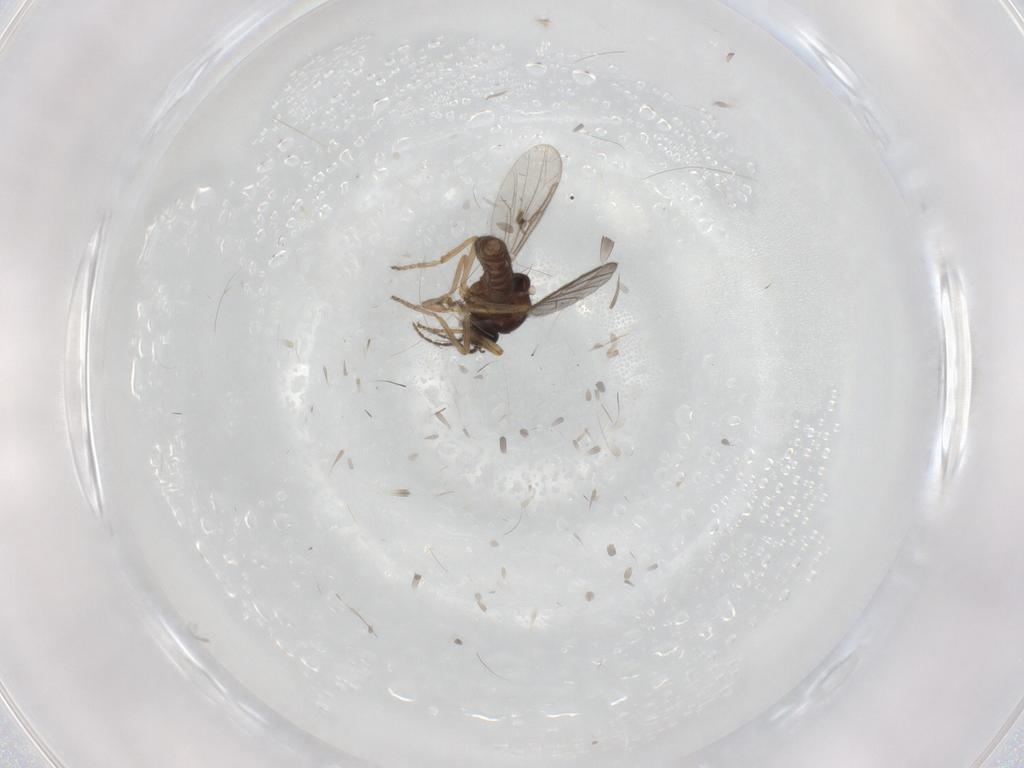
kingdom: Animalia
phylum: Arthropoda
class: Insecta
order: Diptera
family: Ceratopogonidae
